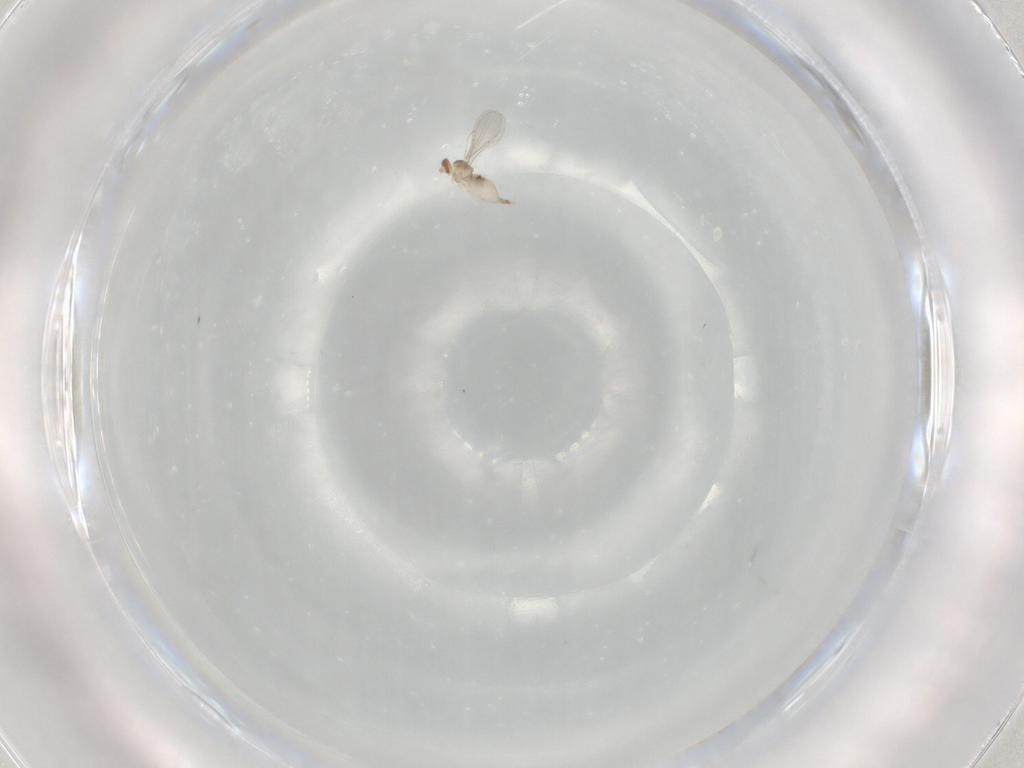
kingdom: Animalia
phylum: Arthropoda
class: Insecta
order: Diptera
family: Cecidomyiidae
